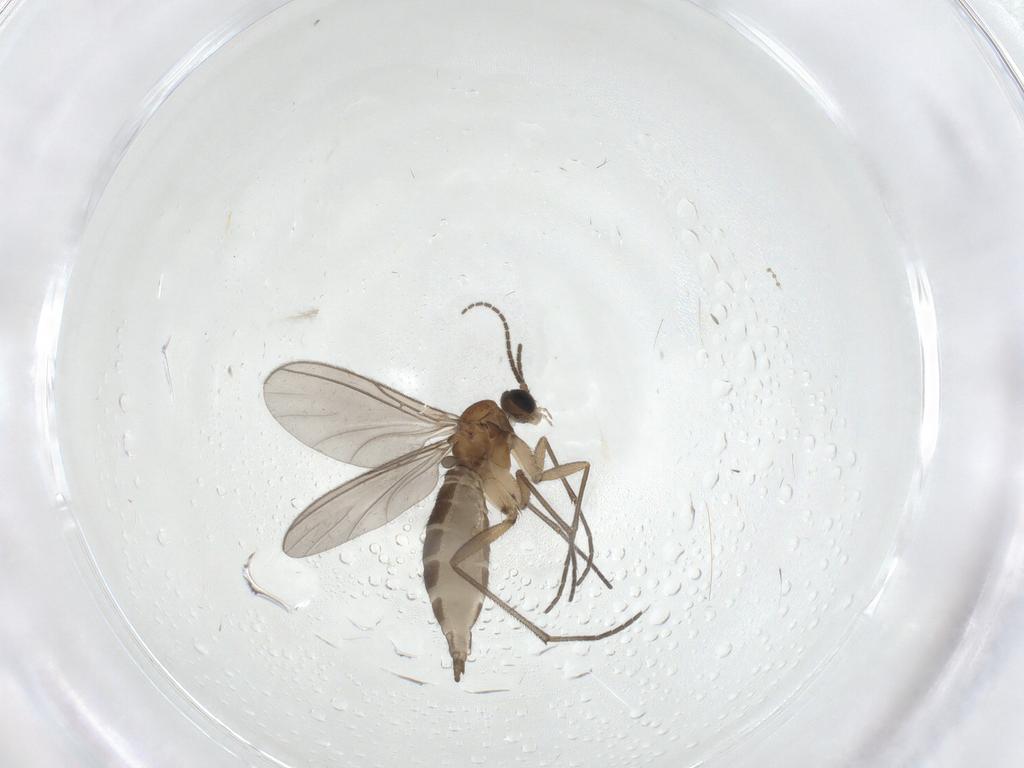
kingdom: Animalia
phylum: Arthropoda
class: Insecta
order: Diptera
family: Sciaridae
